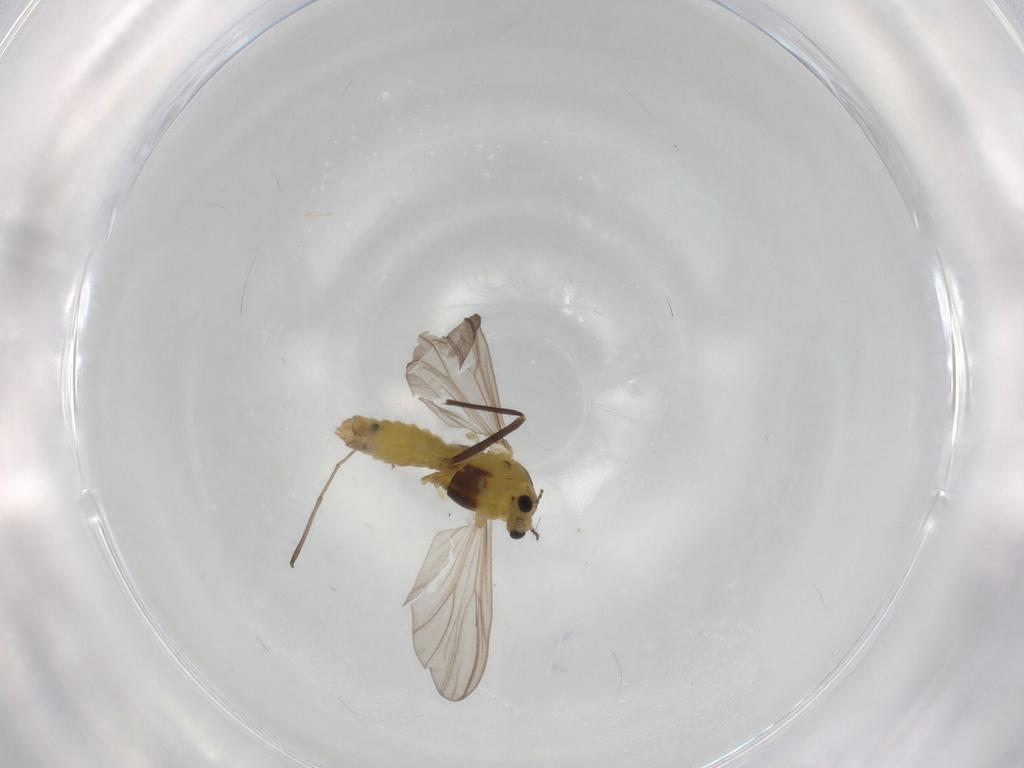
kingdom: Animalia
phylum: Arthropoda
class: Insecta
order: Diptera
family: Chironomidae
